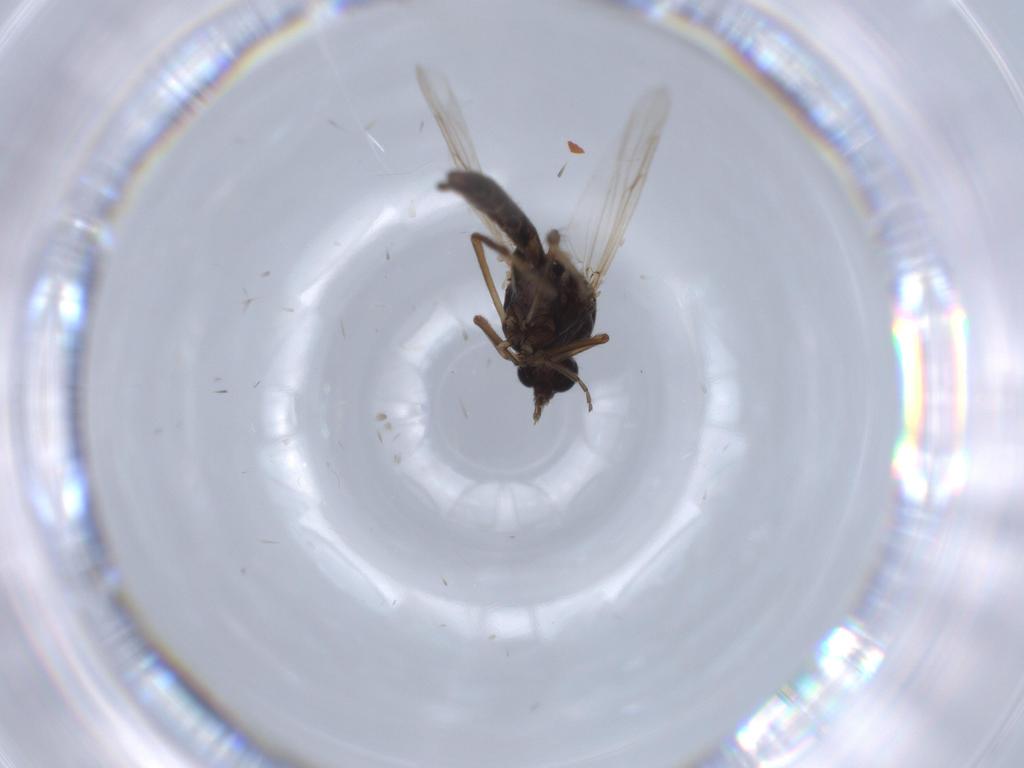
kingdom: Animalia
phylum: Arthropoda
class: Insecta
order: Diptera
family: Ceratopogonidae
